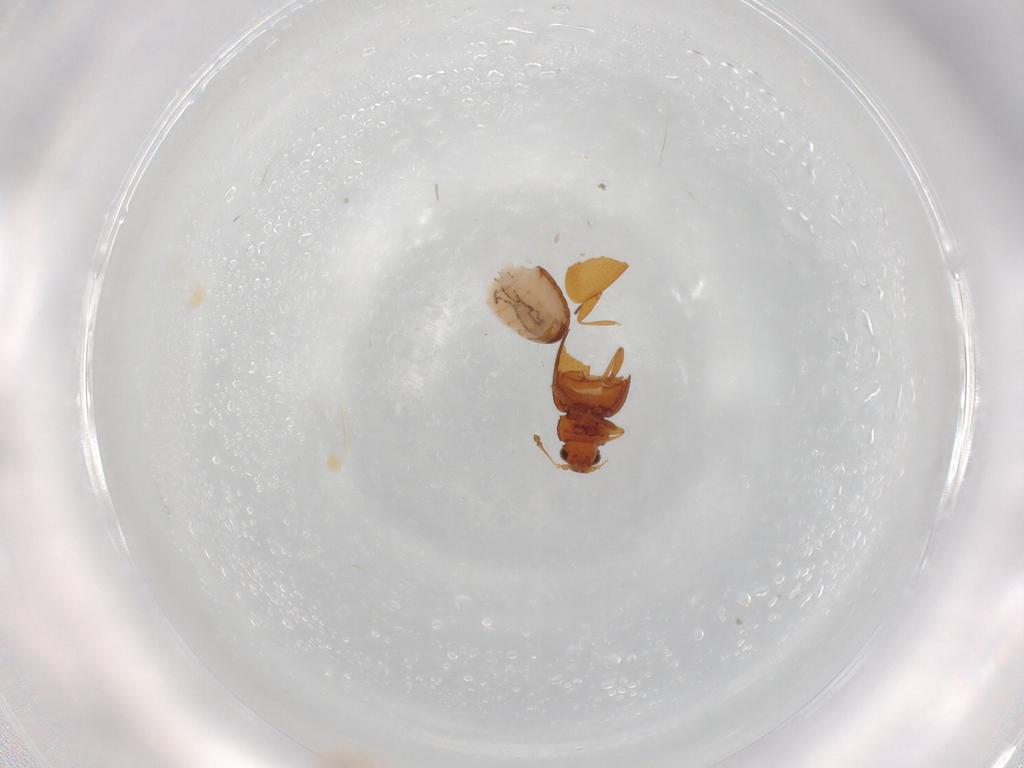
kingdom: Animalia
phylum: Arthropoda
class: Insecta
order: Coleoptera
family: Latridiidae
